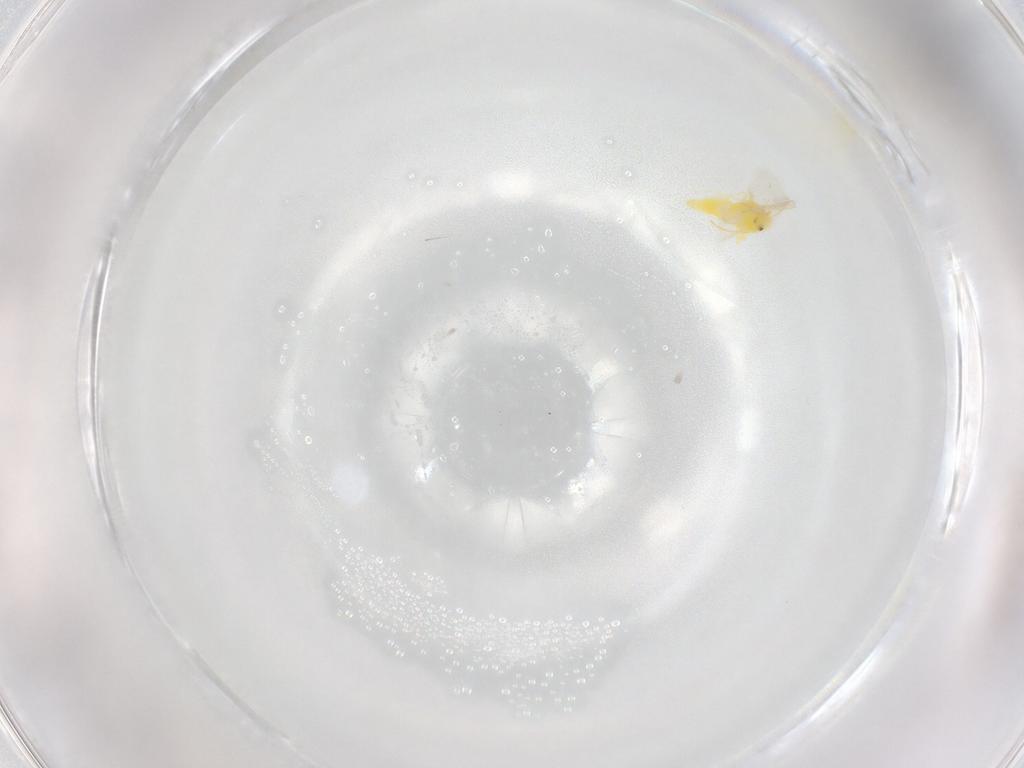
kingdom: Animalia
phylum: Arthropoda
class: Insecta
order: Hemiptera
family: Aleyrodidae
